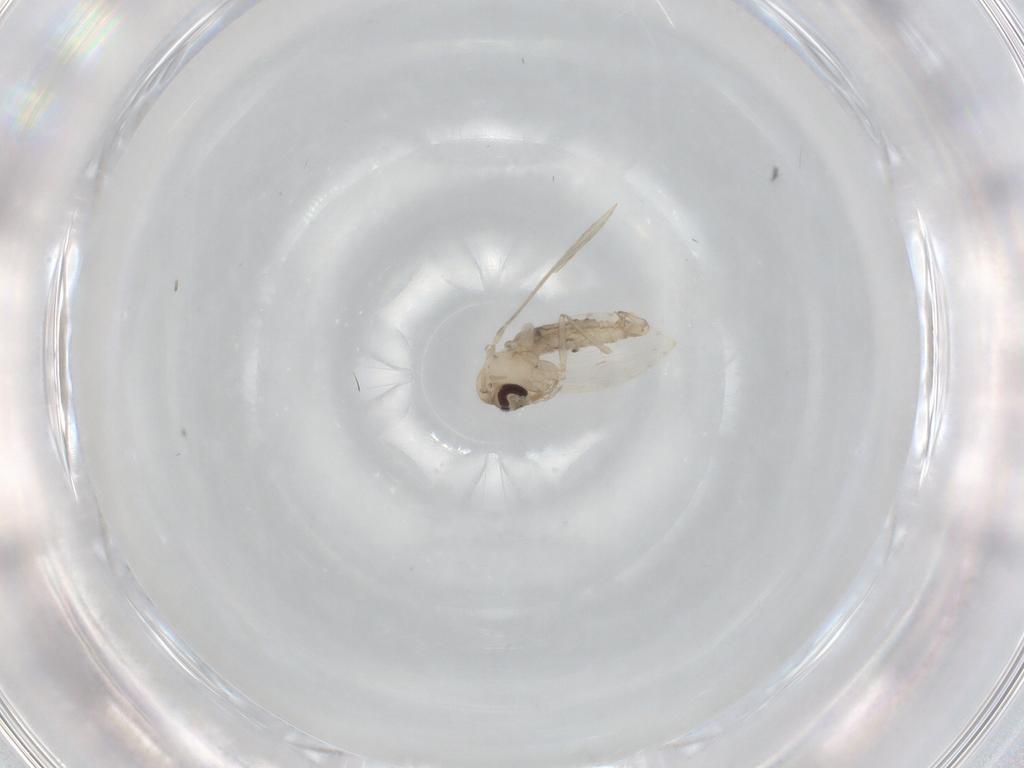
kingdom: Animalia
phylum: Arthropoda
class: Insecta
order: Diptera
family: Psychodidae
